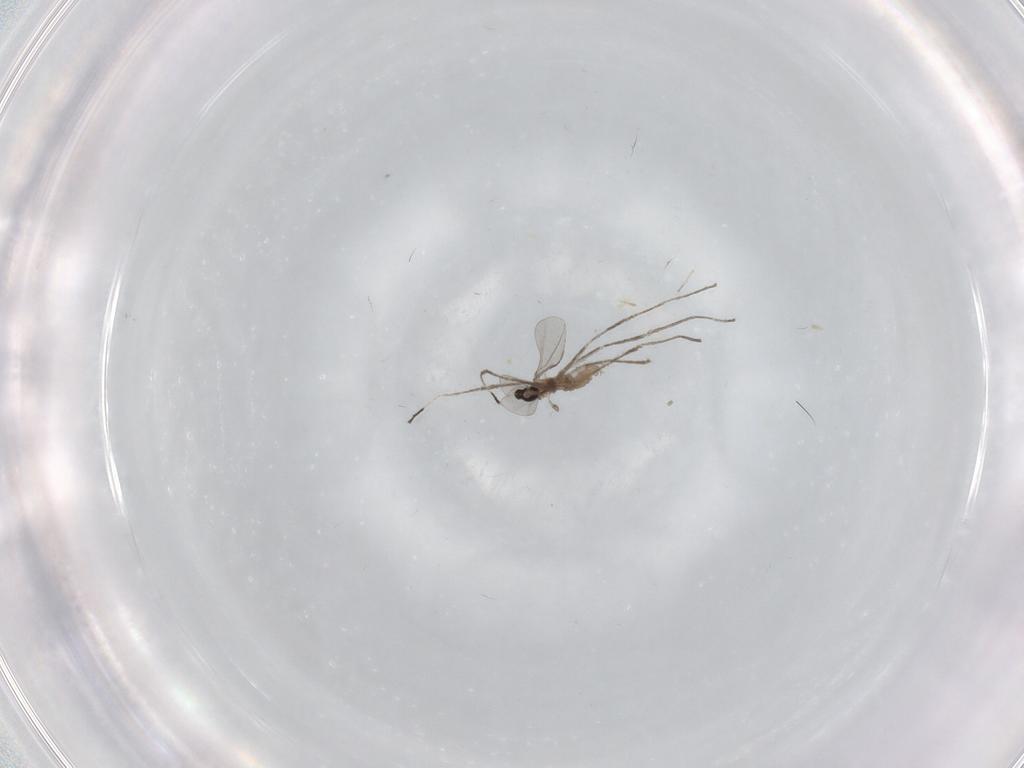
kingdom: Animalia
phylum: Arthropoda
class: Insecta
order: Diptera
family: Cecidomyiidae
